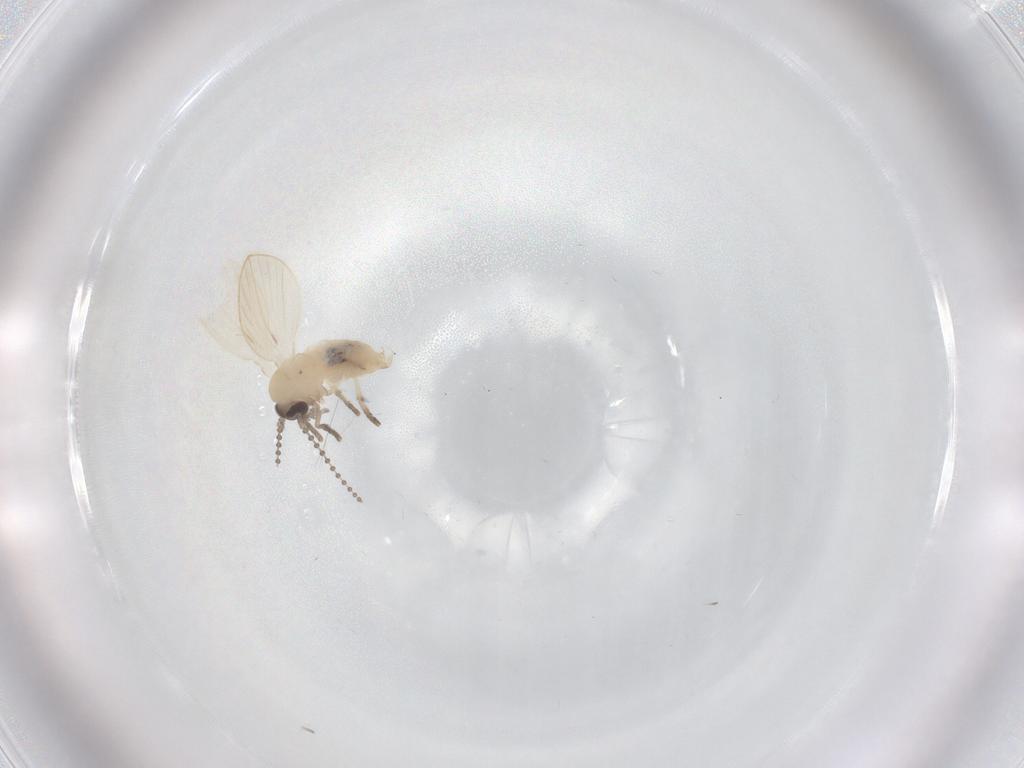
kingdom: Animalia
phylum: Arthropoda
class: Insecta
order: Diptera
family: Psychodidae
